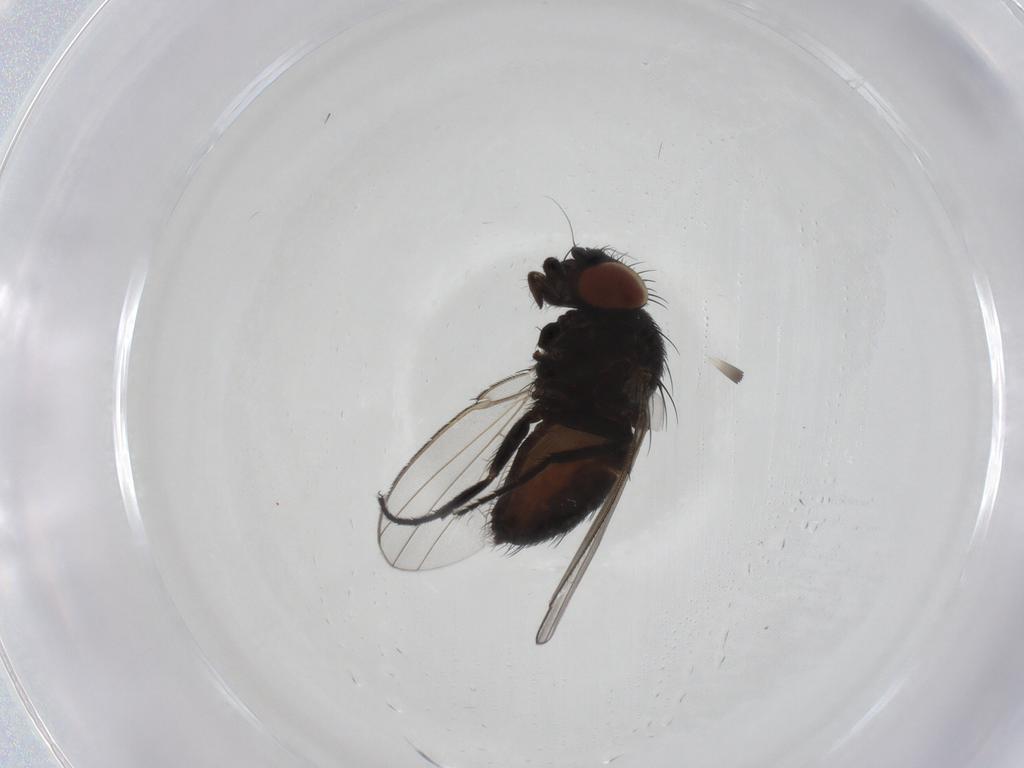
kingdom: Animalia
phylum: Arthropoda
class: Insecta
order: Diptera
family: Milichiidae
